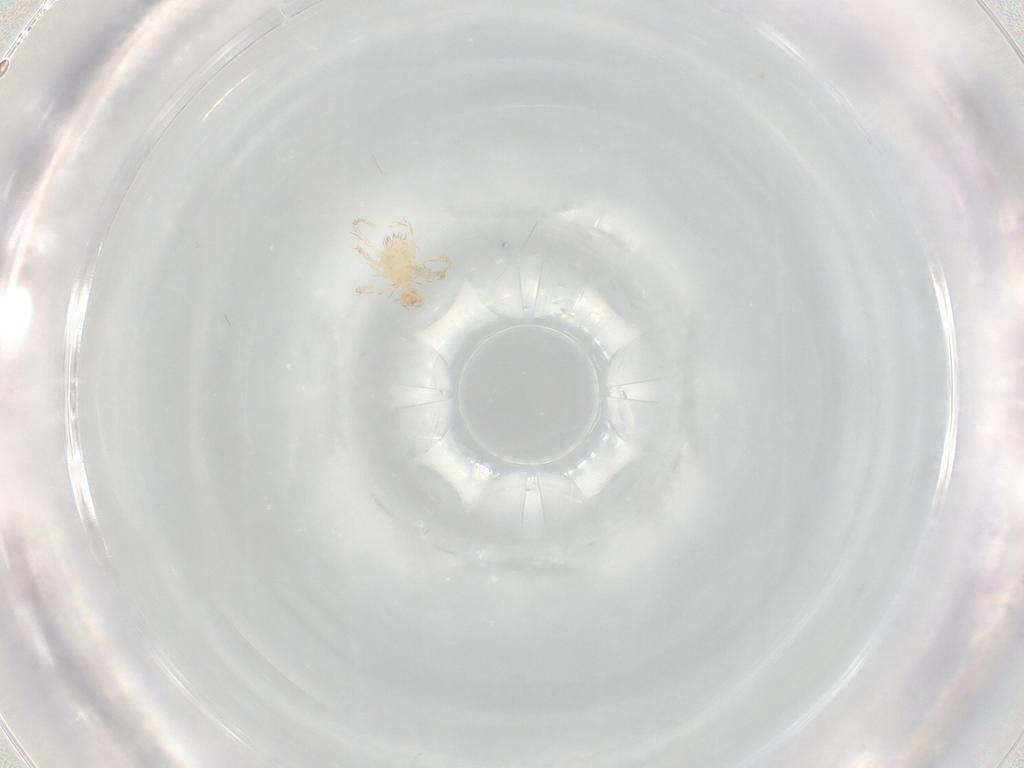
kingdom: Animalia
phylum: Arthropoda
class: Arachnida
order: Trombidiformes
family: Erythraeidae
